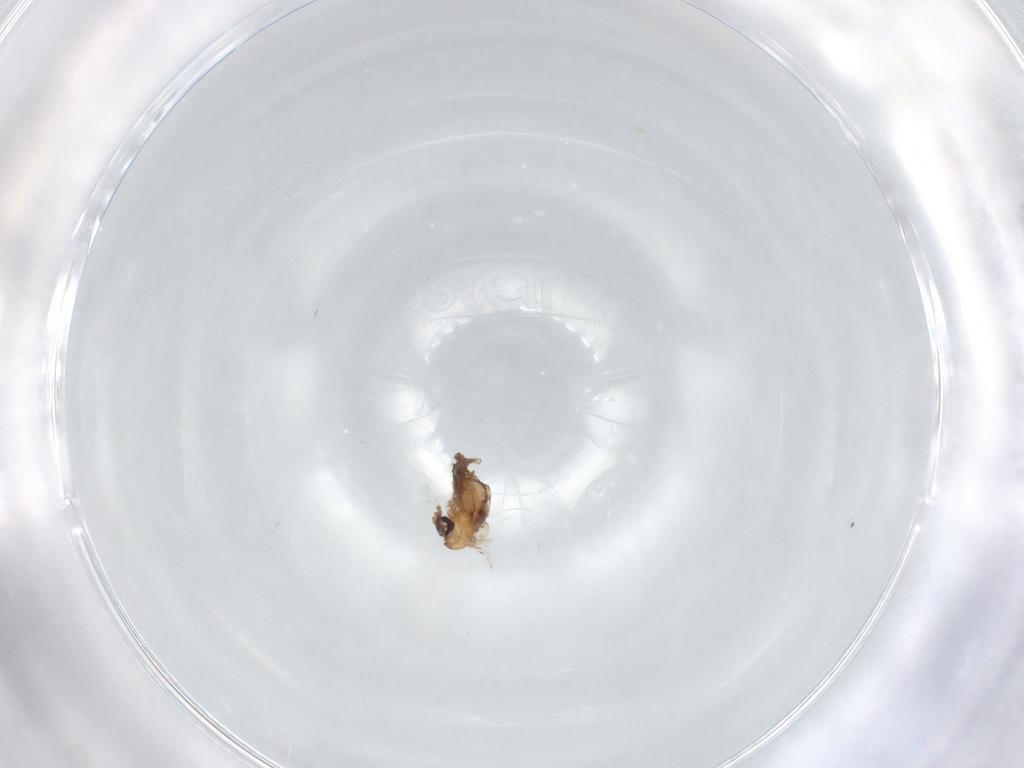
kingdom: Animalia
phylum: Arthropoda
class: Insecta
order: Diptera
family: Psychodidae
